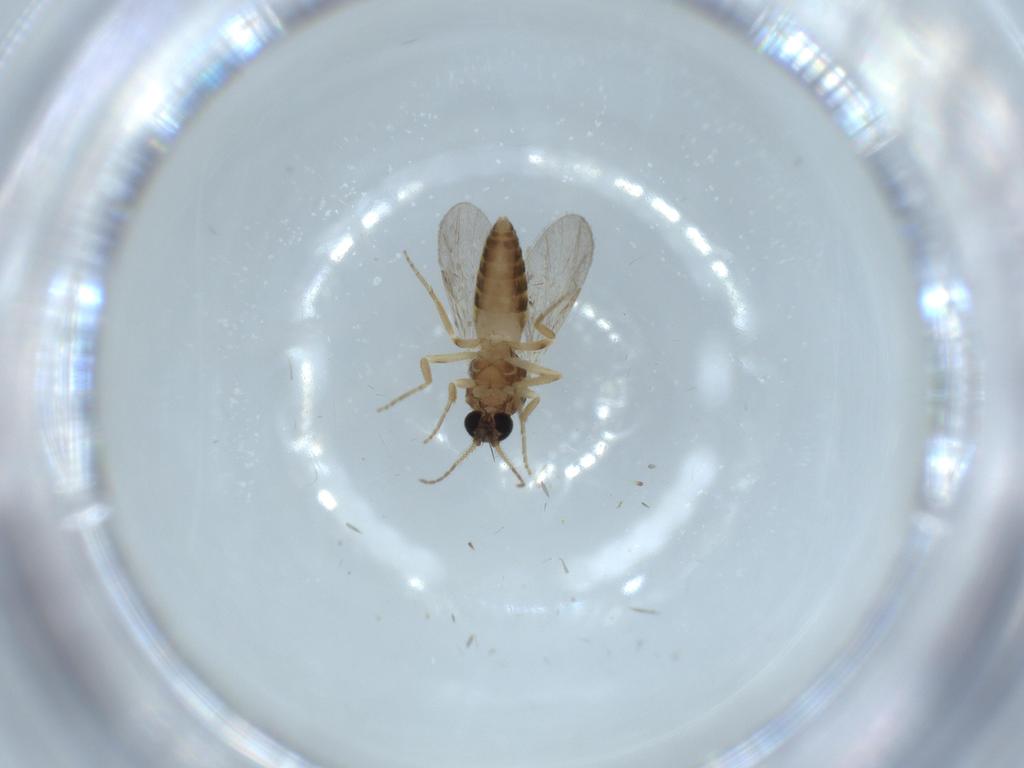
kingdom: Animalia
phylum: Arthropoda
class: Insecta
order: Diptera
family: Ceratopogonidae
